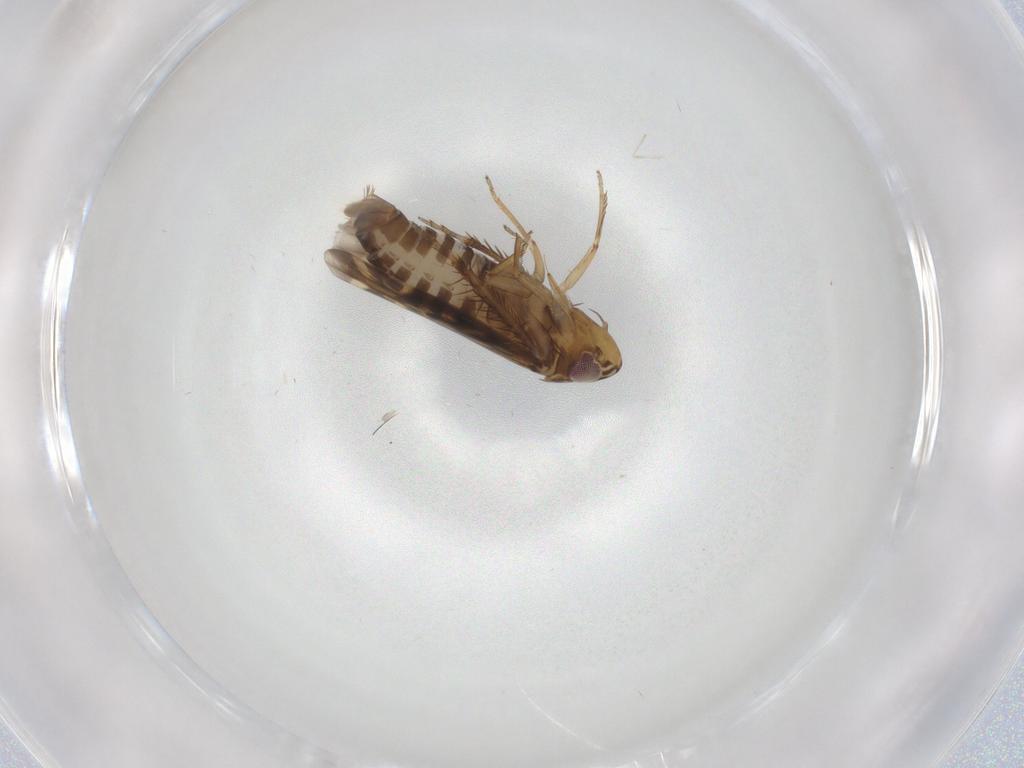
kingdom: Animalia
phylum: Arthropoda
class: Insecta
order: Hemiptera
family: Cicadellidae
